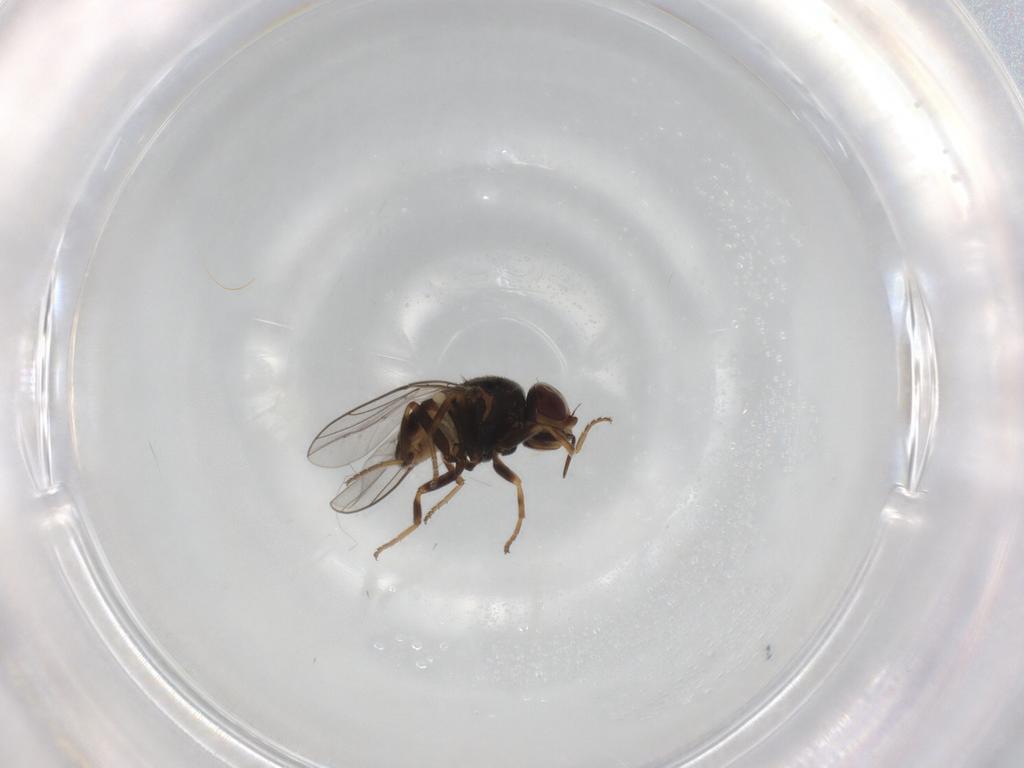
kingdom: Animalia
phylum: Arthropoda
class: Insecta
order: Diptera
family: Chloropidae
